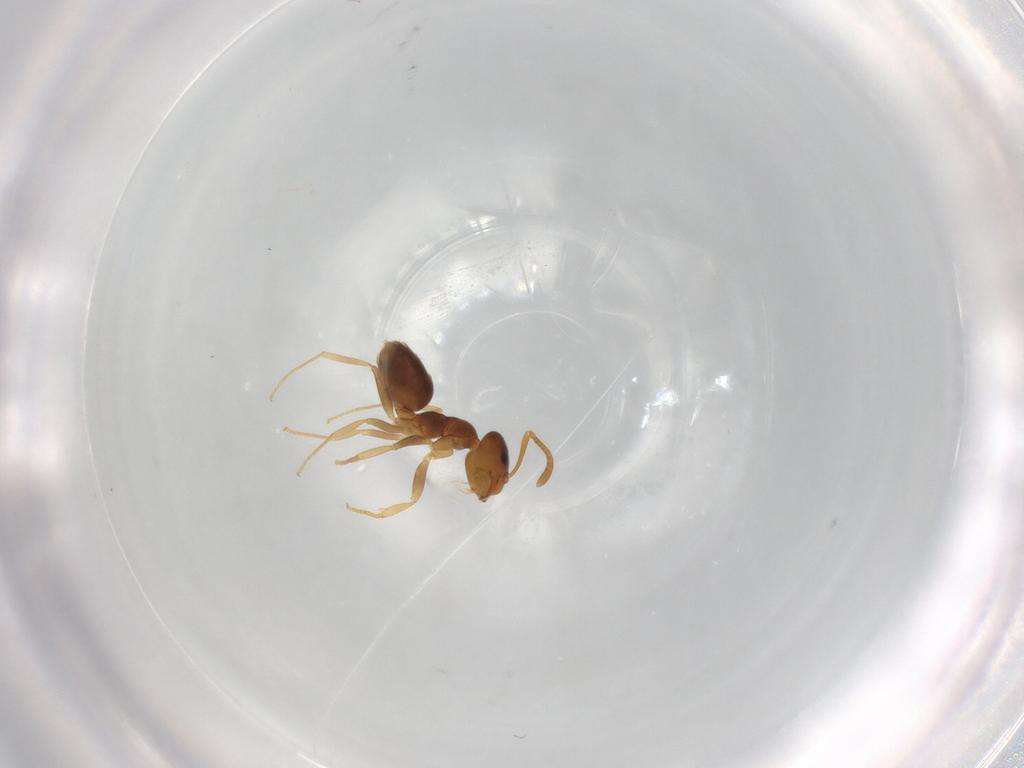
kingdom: Animalia
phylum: Arthropoda
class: Insecta
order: Hymenoptera
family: Formicidae
